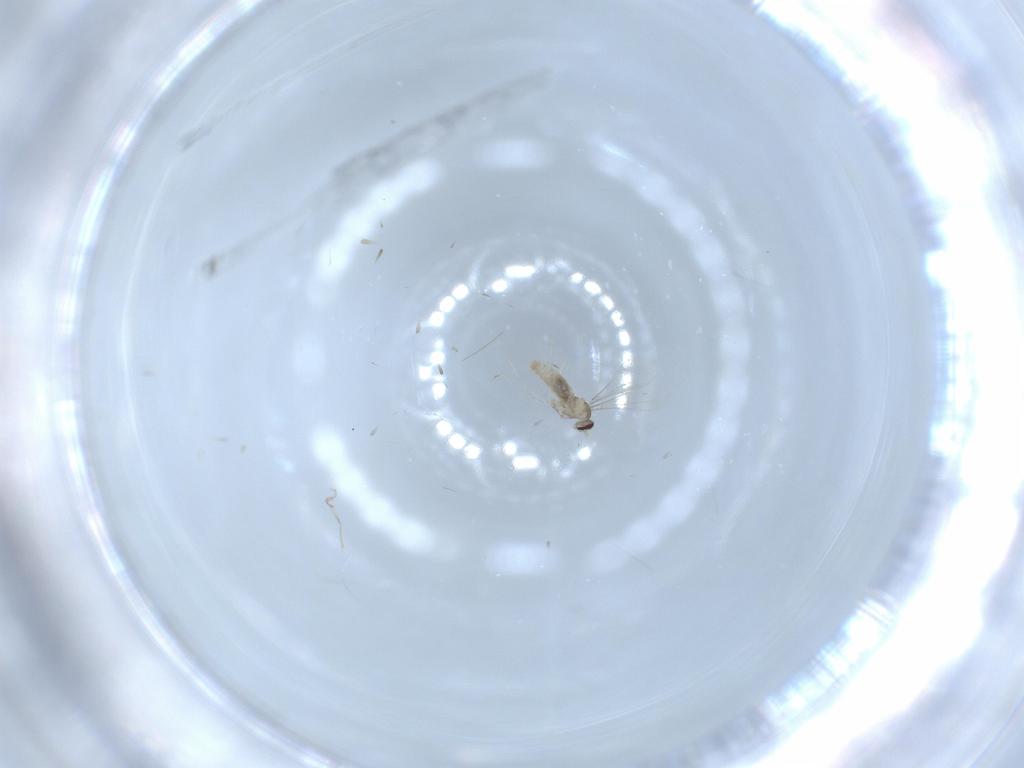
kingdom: Animalia
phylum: Arthropoda
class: Insecta
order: Diptera
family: Cecidomyiidae
